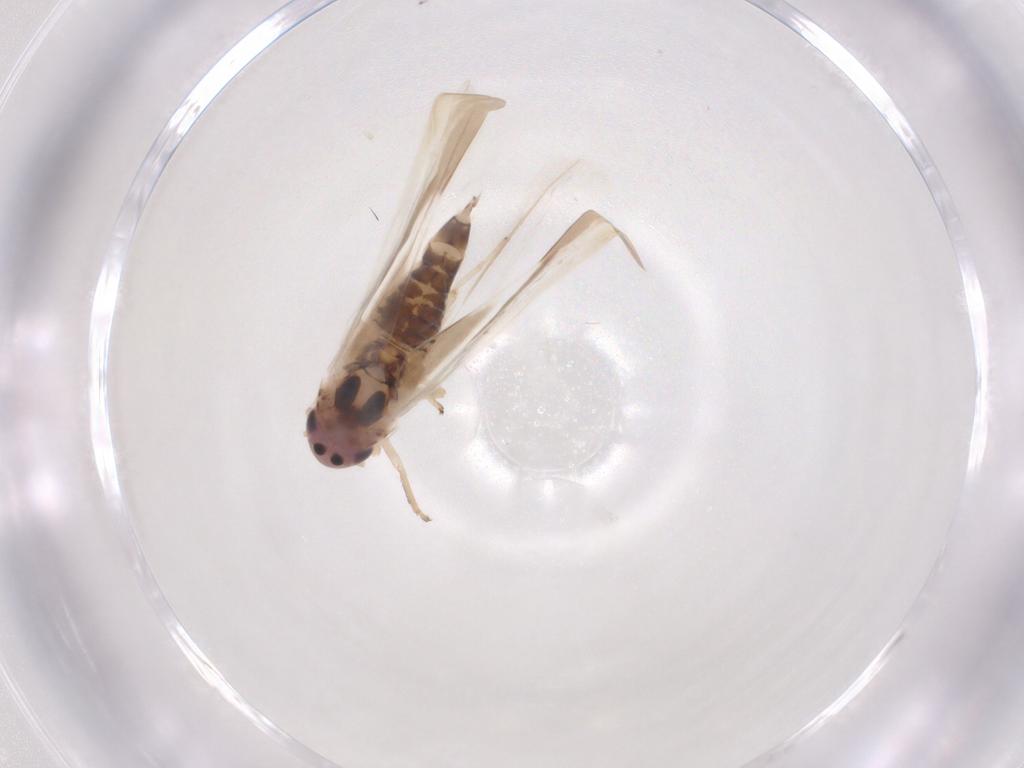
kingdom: Animalia
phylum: Arthropoda
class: Insecta
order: Hemiptera
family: Cicadellidae
